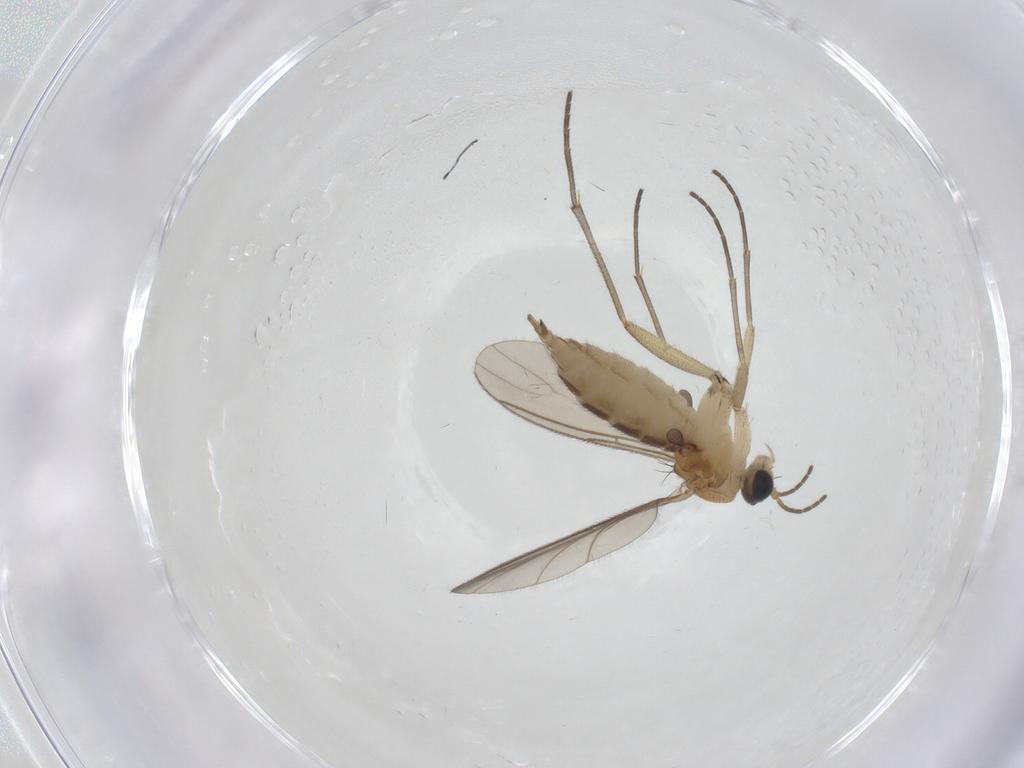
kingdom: Animalia
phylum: Arthropoda
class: Insecta
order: Diptera
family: Sciaridae
